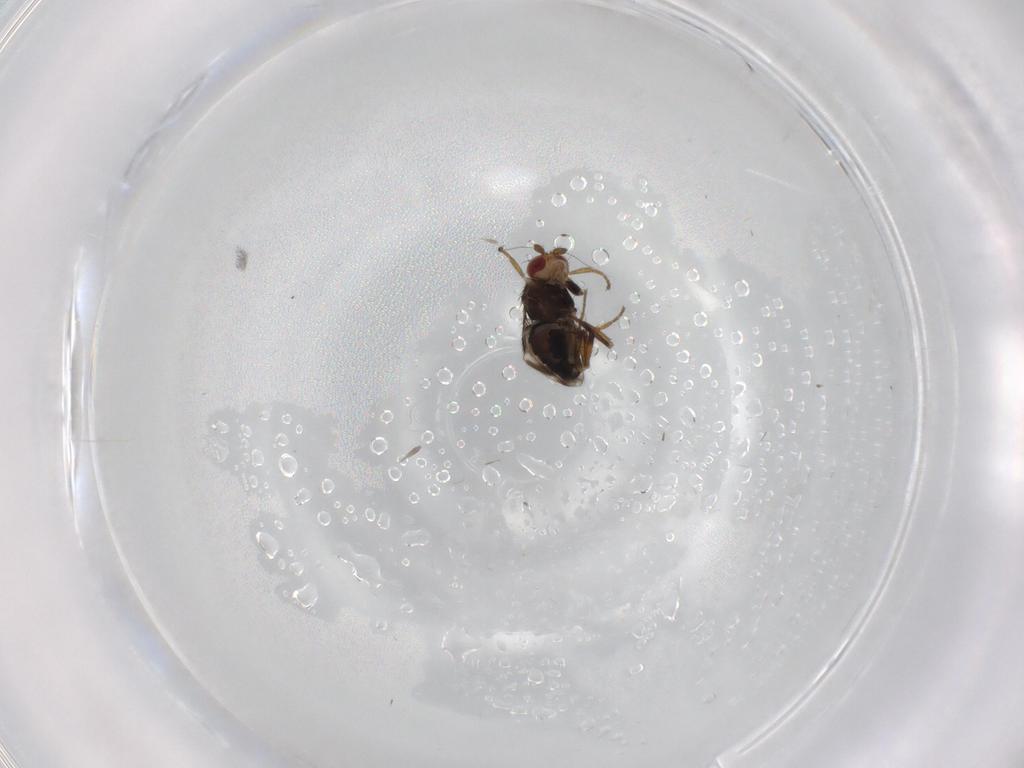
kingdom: Animalia
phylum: Arthropoda
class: Insecta
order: Diptera
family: Sphaeroceridae
